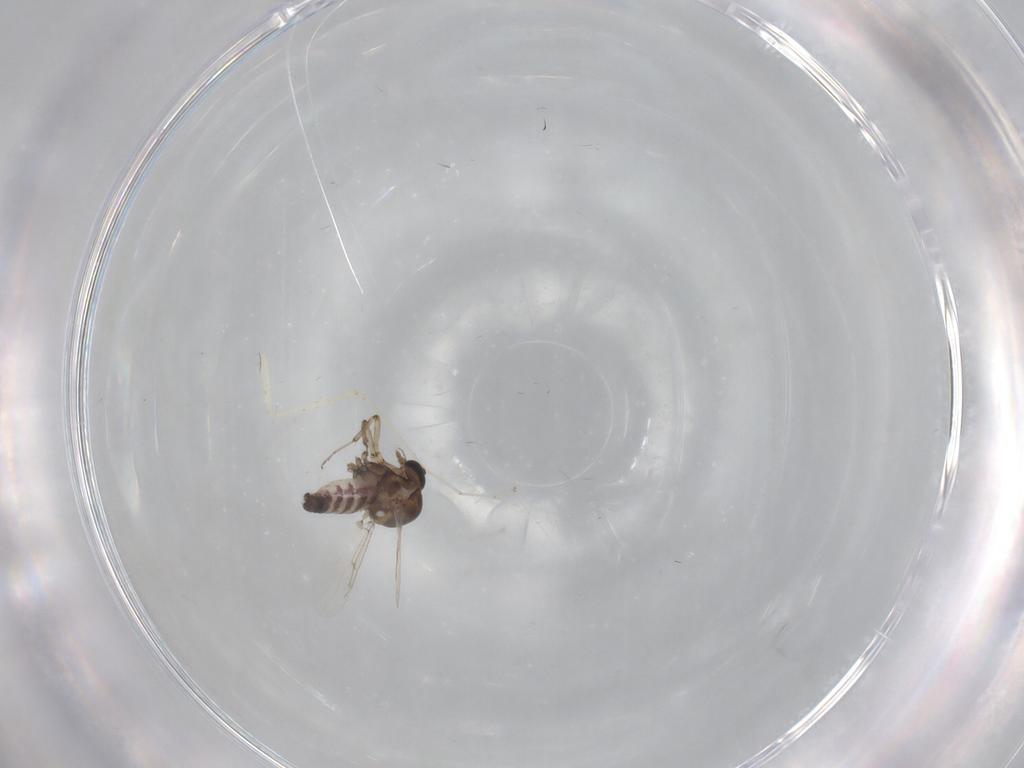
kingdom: Animalia
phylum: Arthropoda
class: Insecta
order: Diptera
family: Ceratopogonidae
